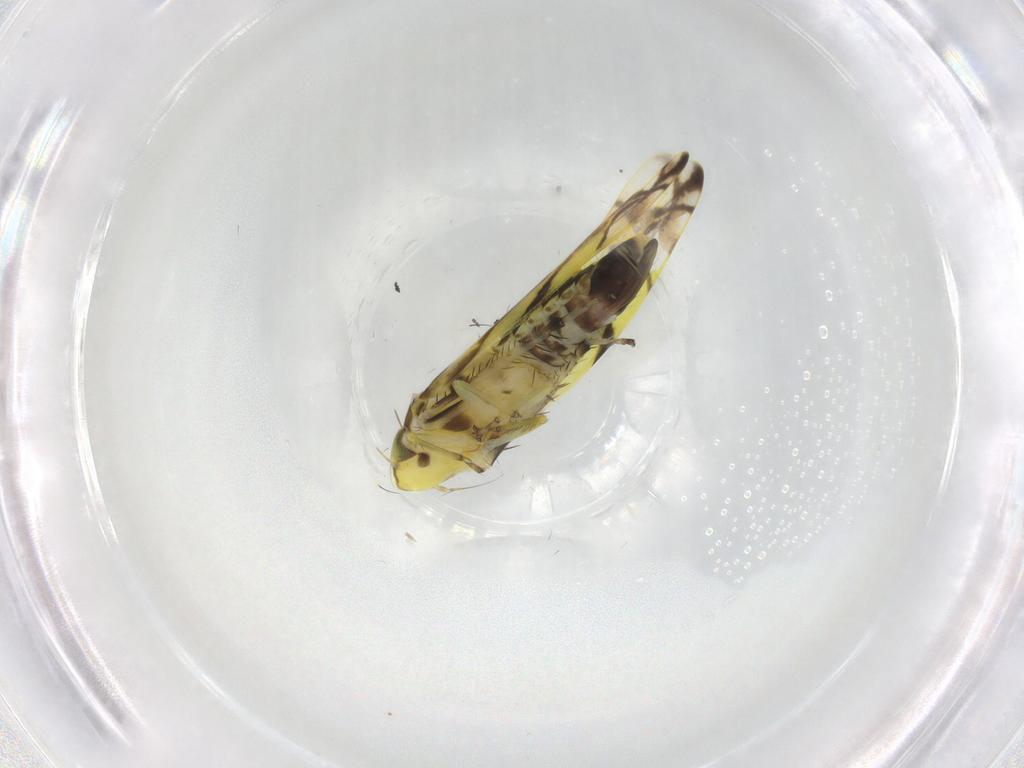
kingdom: Animalia
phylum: Arthropoda
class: Insecta
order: Hemiptera
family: Cicadellidae
